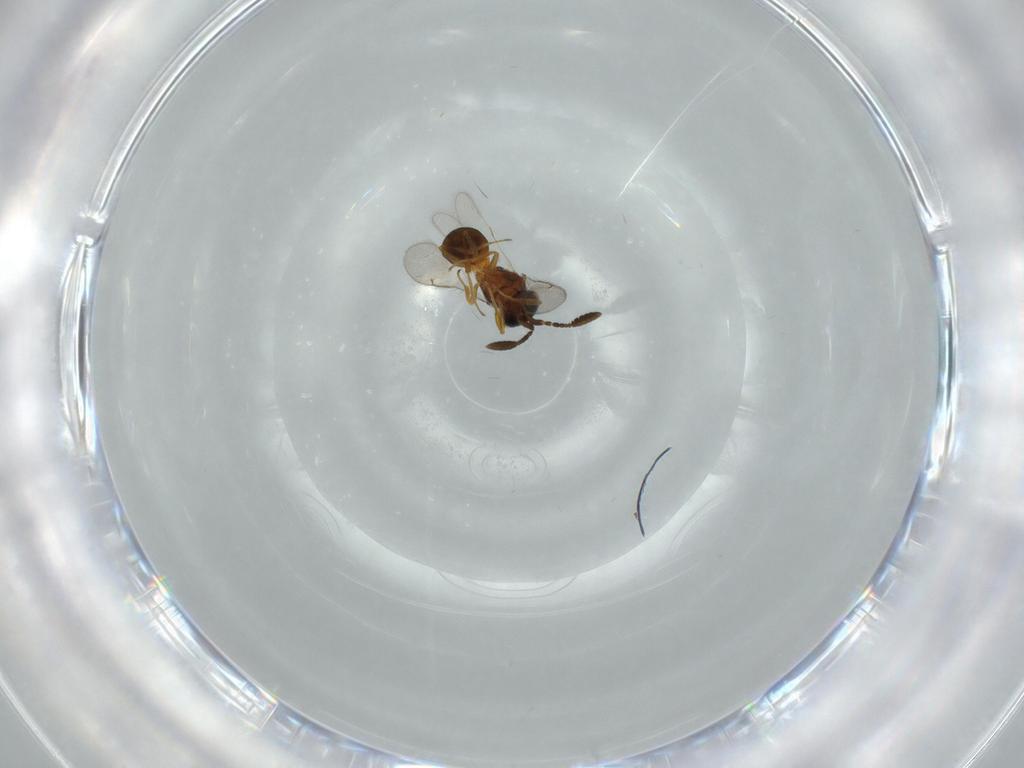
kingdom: Animalia
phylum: Arthropoda
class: Insecta
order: Hymenoptera
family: Scelionidae
